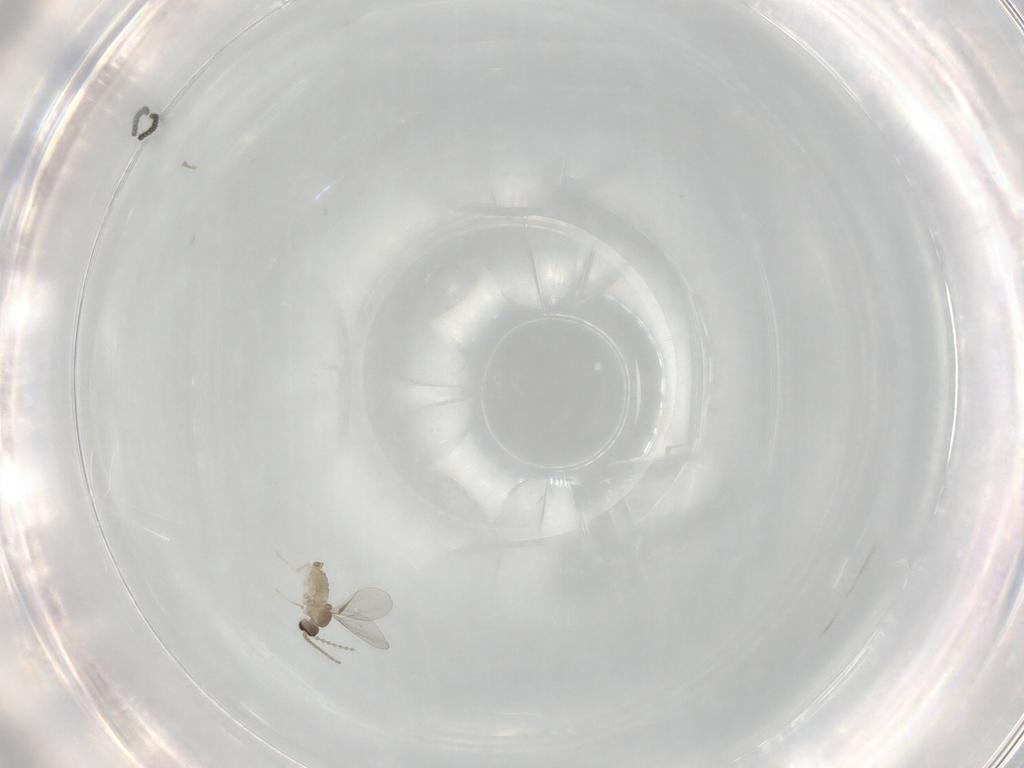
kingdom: Animalia
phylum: Arthropoda
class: Insecta
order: Diptera
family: Cecidomyiidae
